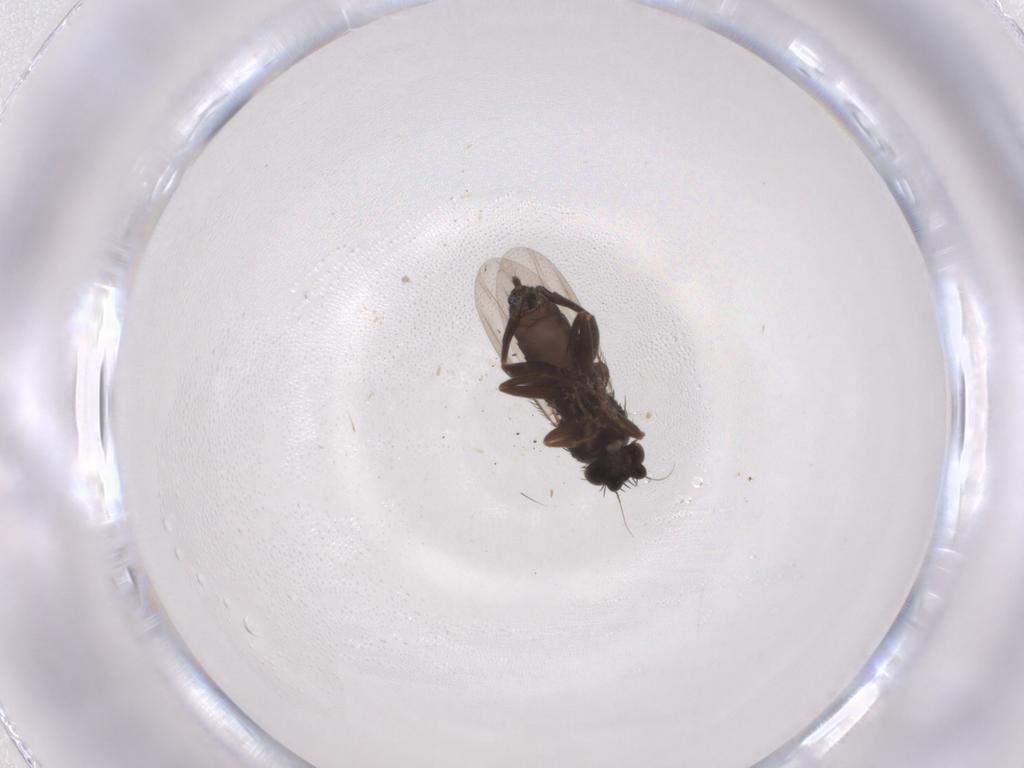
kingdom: Animalia
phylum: Arthropoda
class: Insecta
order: Diptera
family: Phoridae
